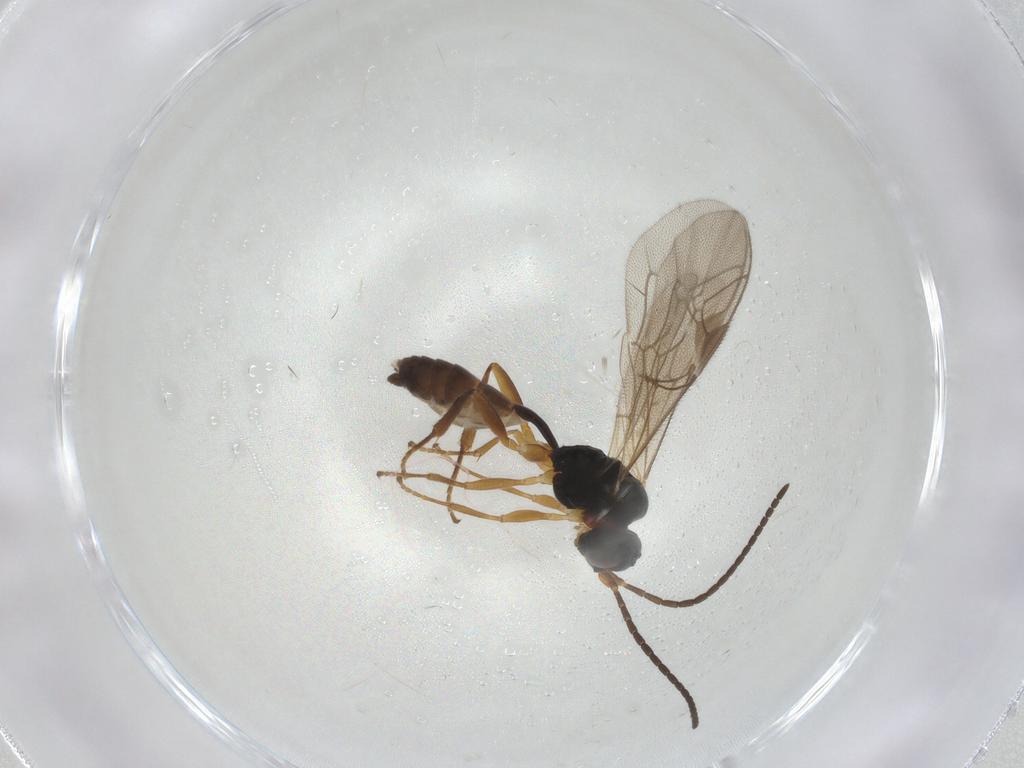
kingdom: Animalia
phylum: Arthropoda
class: Insecta
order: Hymenoptera
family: Ichneumonidae
